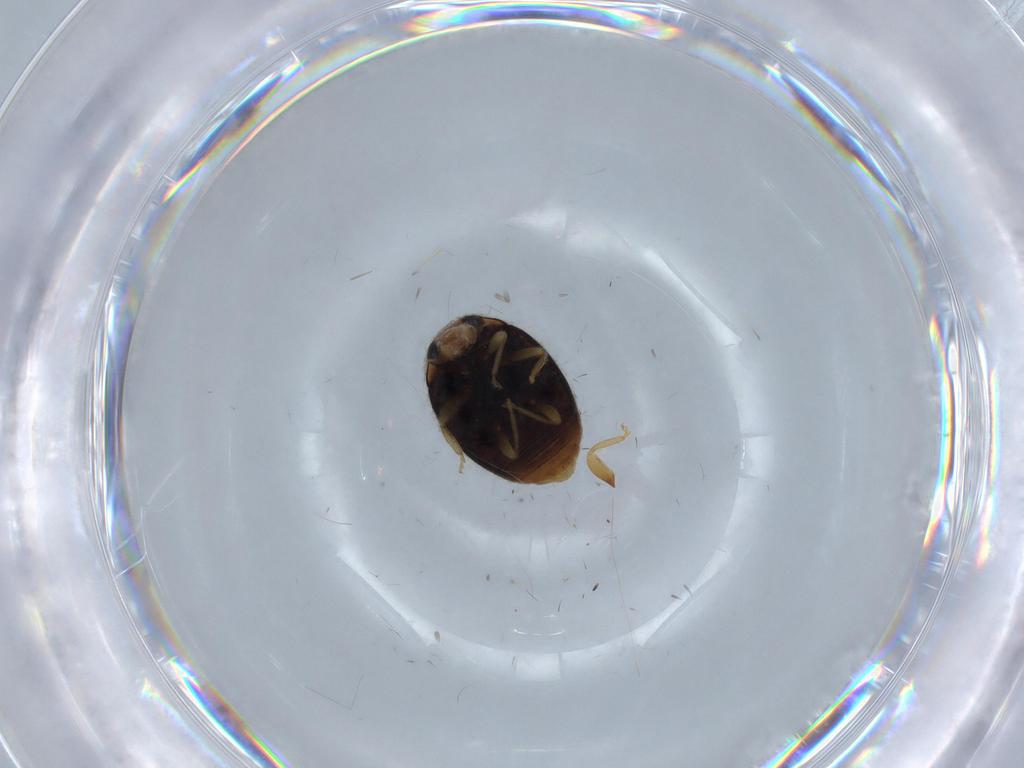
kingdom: Animalia
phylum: Arthropoda
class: Insecta
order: Coleoptera
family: Coccinellidae
